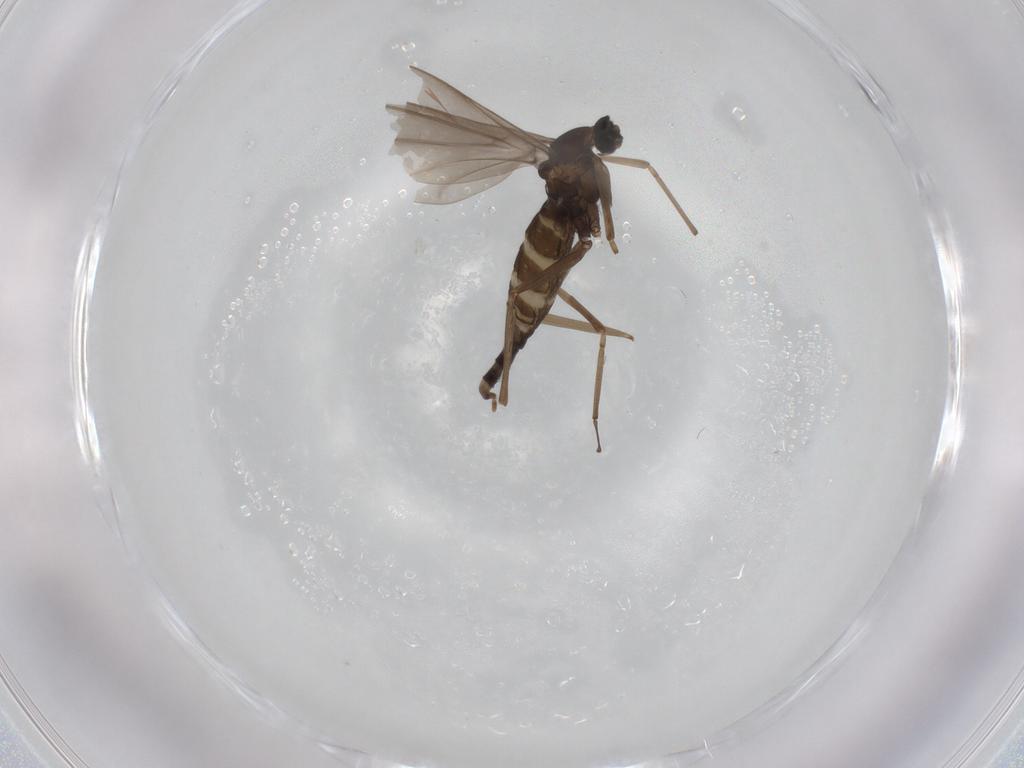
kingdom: Animalia
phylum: Arthropoda
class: Insecta
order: Diptera
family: Cecidomyiidae
